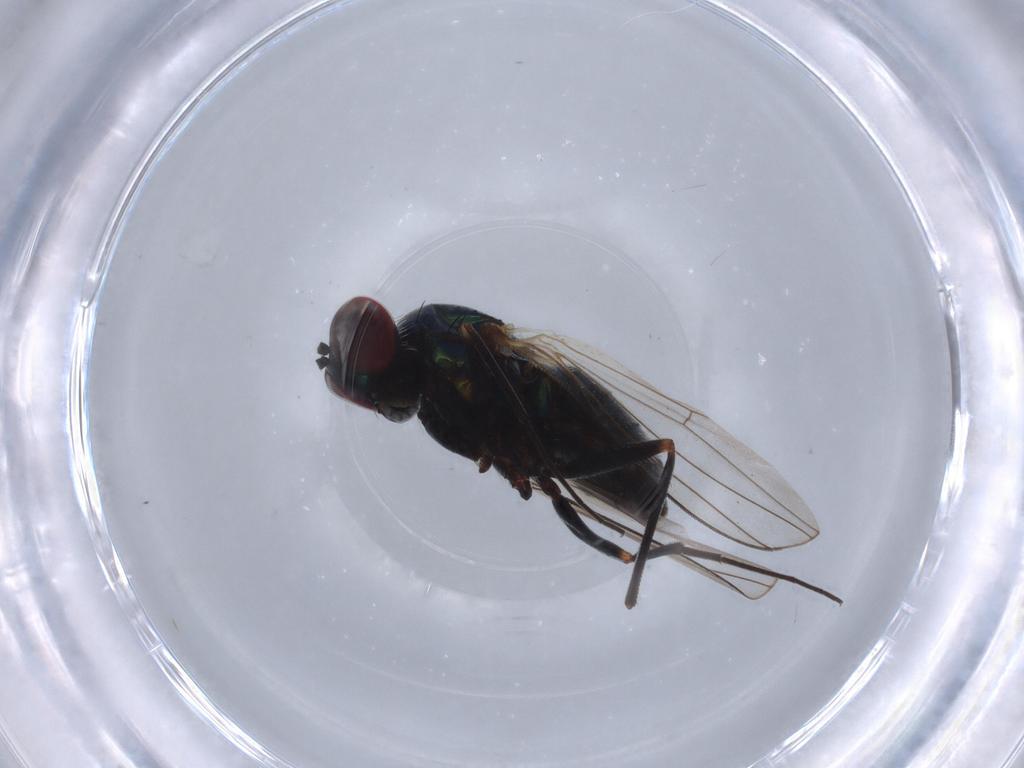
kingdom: Animalia
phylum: Arthropoda
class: Insecta
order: Diptera
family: Dolichopodidae
